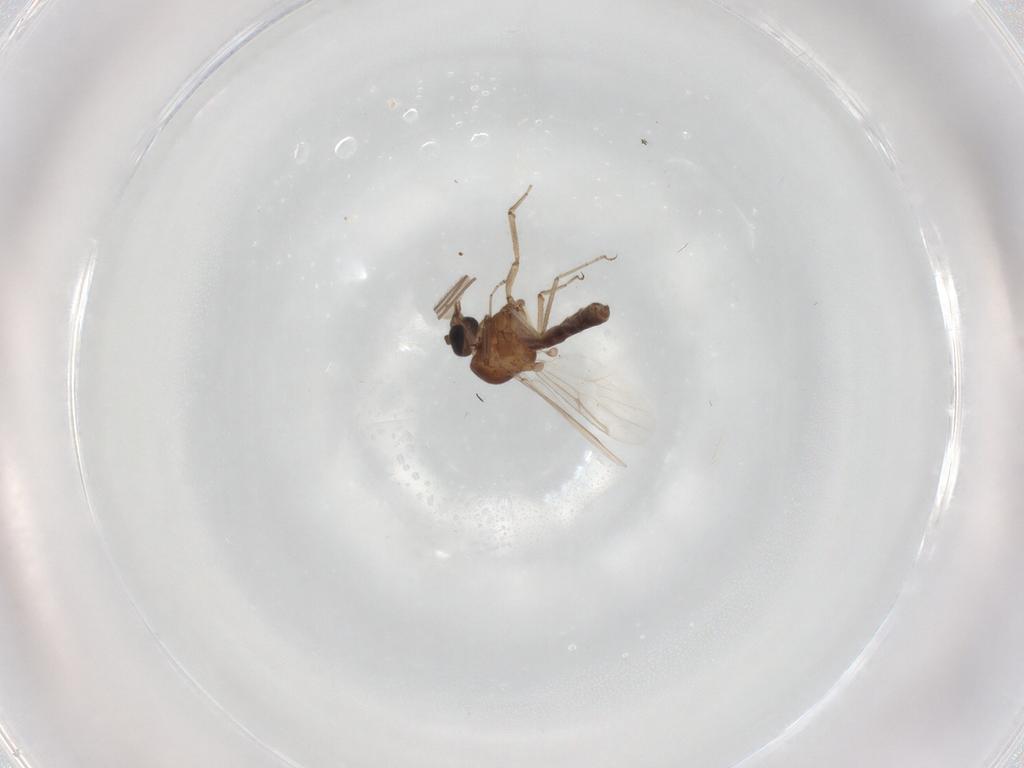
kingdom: Animalia
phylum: Arthropoda
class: Insecta
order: Diptera
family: Ceratopogonidae
